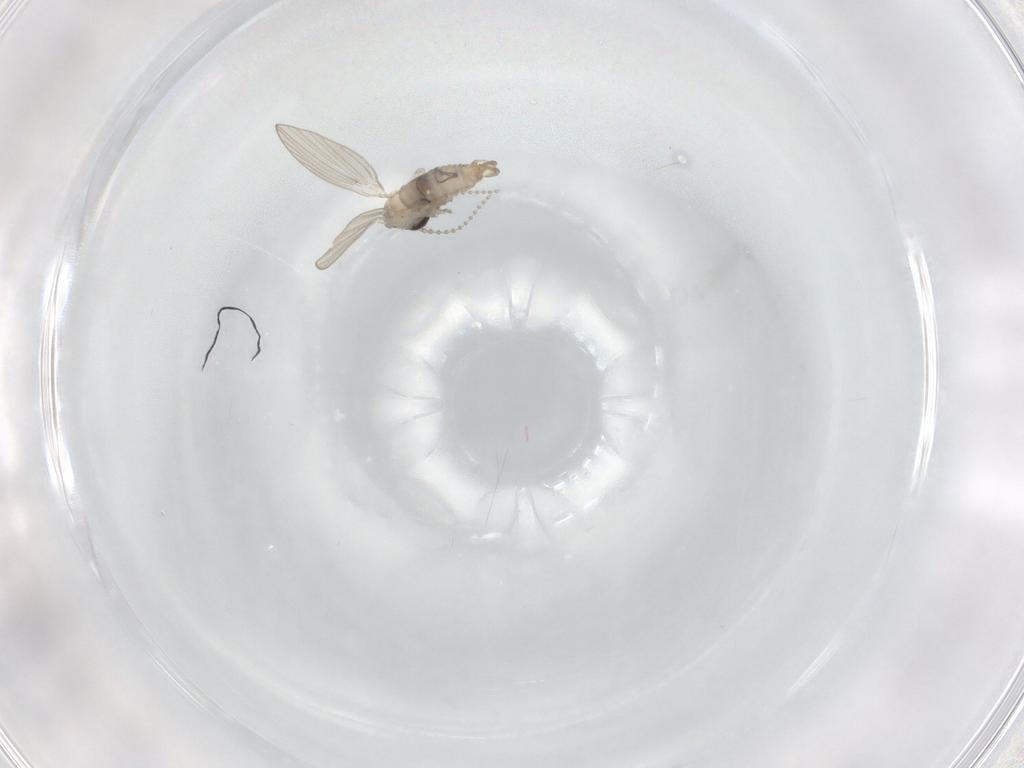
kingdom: Animalia
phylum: Arthropoda
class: Insecta
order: Diptera
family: Psychodidae
